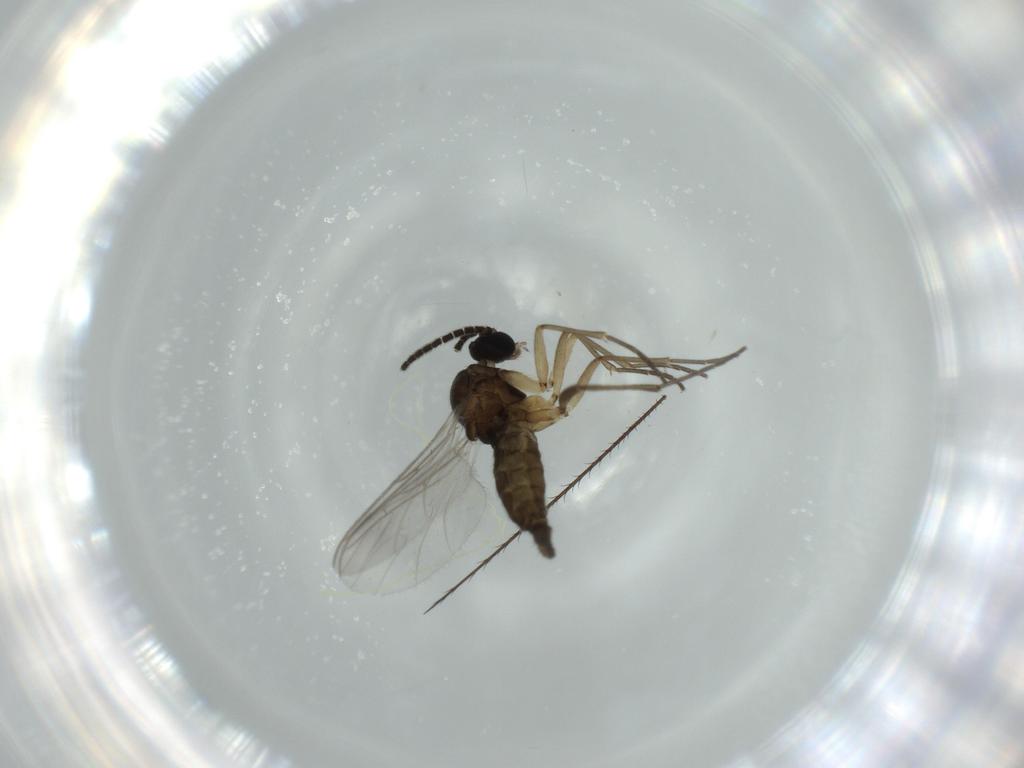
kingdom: Animalia
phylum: Arthropoda
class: Insecta
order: Diptera
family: Sciaridae
